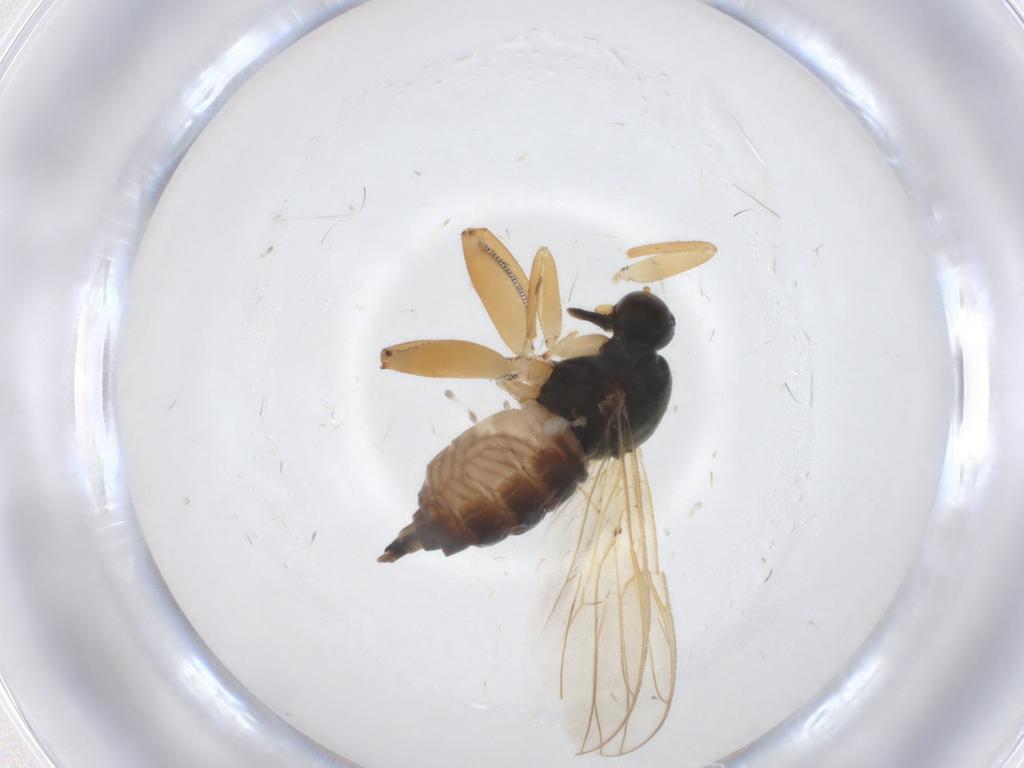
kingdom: Animalia
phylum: Arthropoda
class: Insecta
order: Diptera
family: Hybotidae
